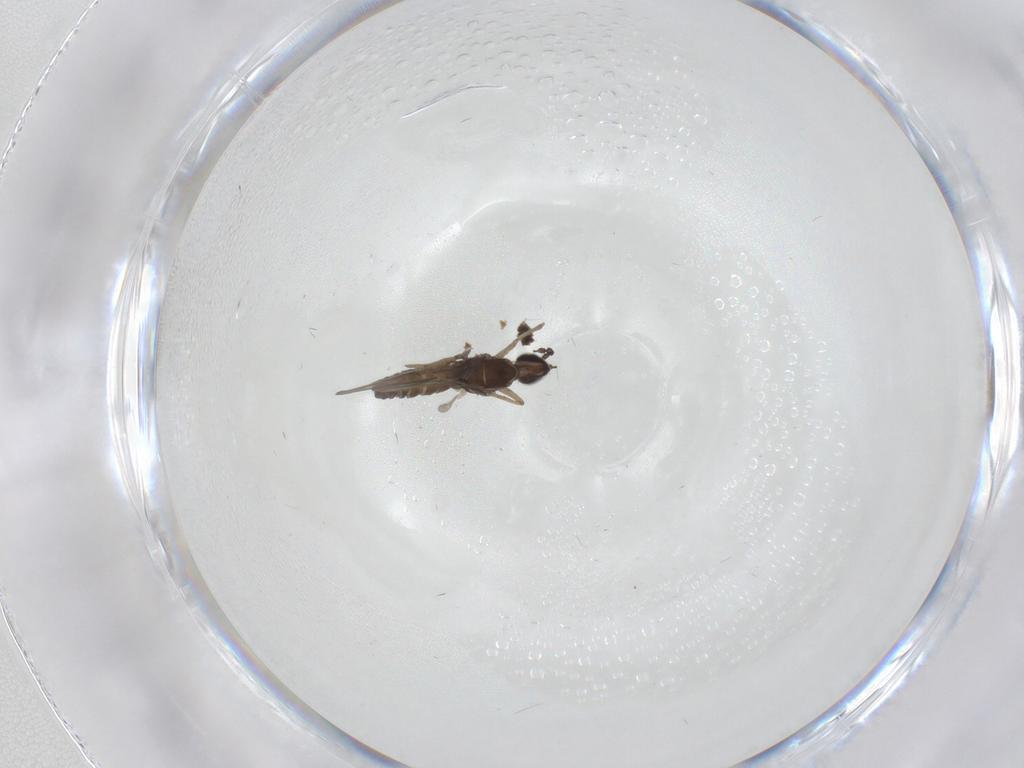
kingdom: Animalia
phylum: Arthropoda
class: Insecta
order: Diptera
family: Cecidomyiidae
